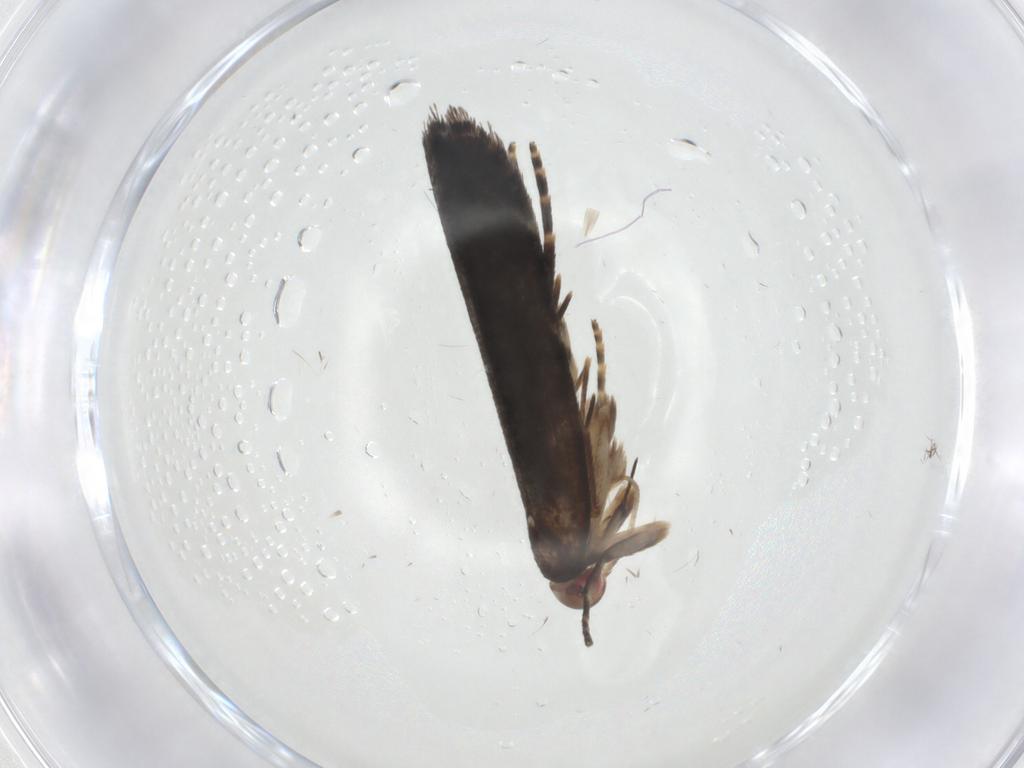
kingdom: Animalia
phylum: Arthropoda
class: Insecta
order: Lepidoptera
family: Gelechiidae
